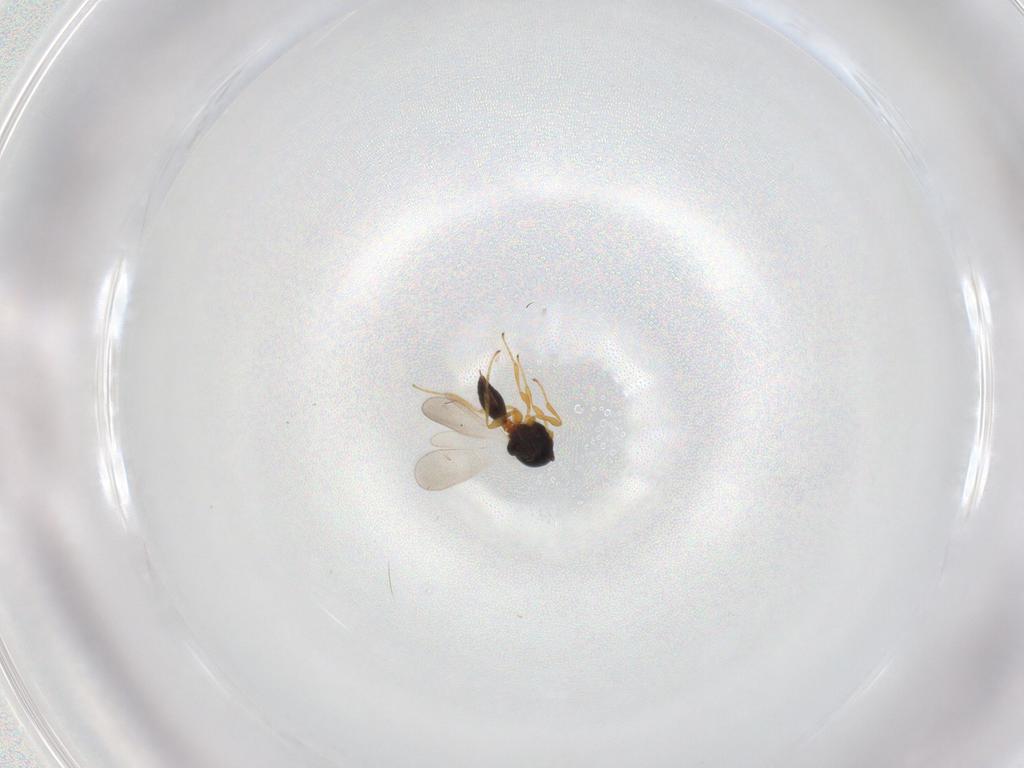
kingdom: Animalia
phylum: Arthropoda
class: Insecta
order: Hymenoptera
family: Platygastridae
